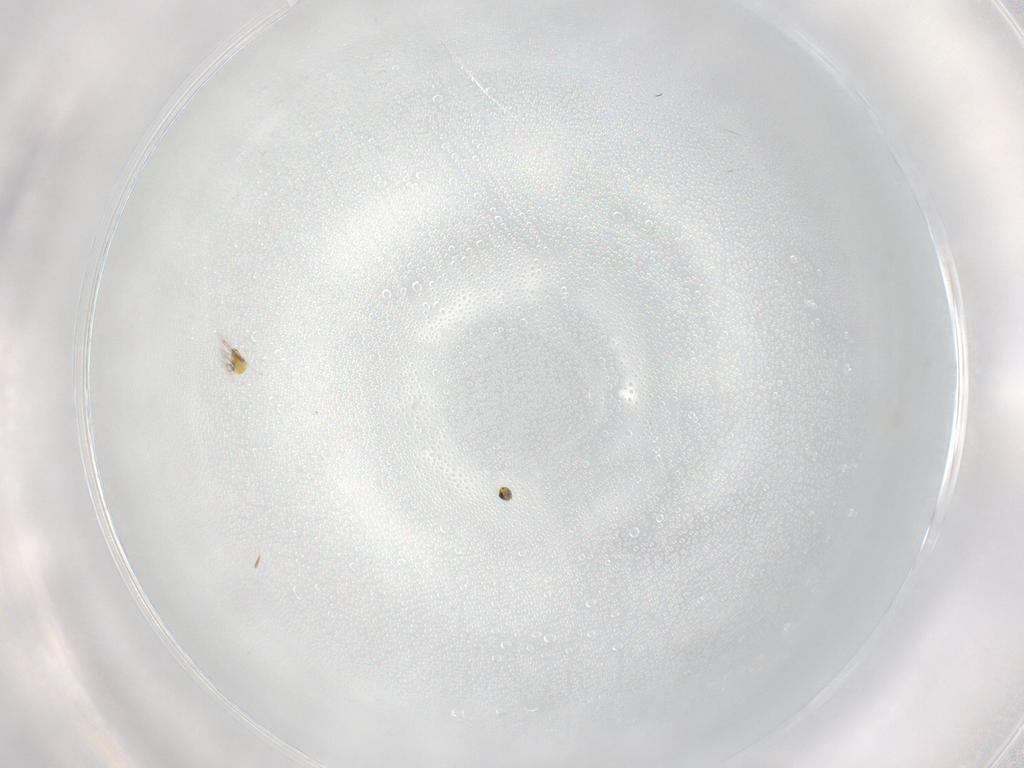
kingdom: Animalia
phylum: Arthropoda
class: Insecta
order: Hymenoptera
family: Trichogrammatidae
